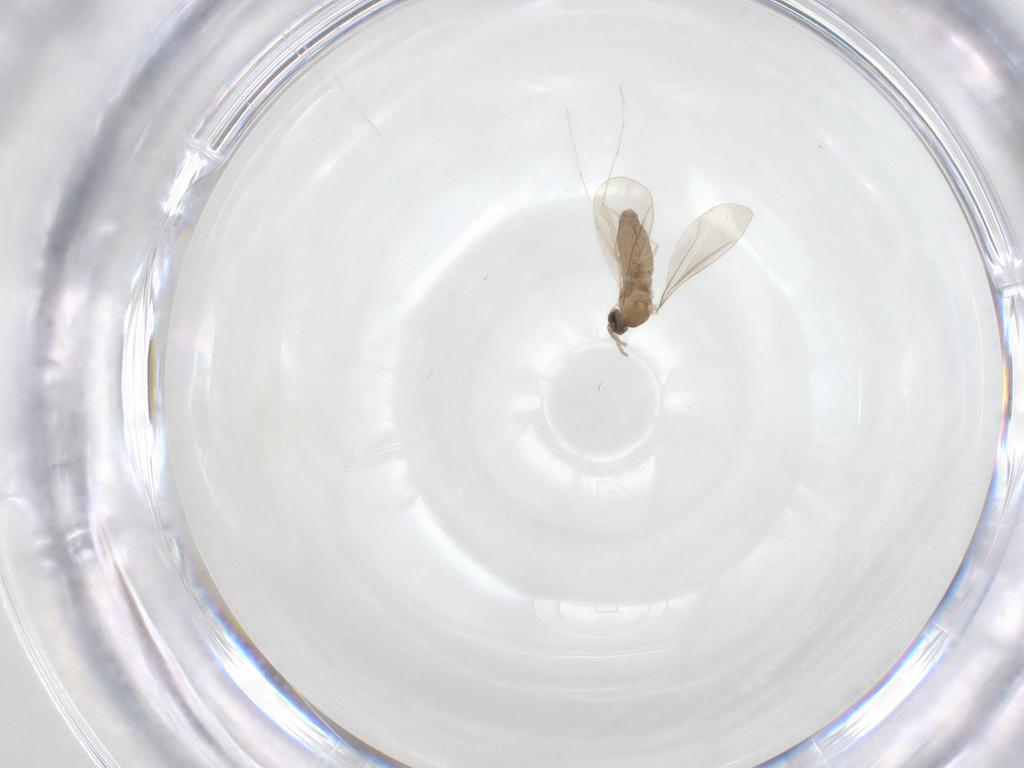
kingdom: Animalia
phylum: Arthropoda
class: Insecta
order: Diptera
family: Cecidomyiidae
